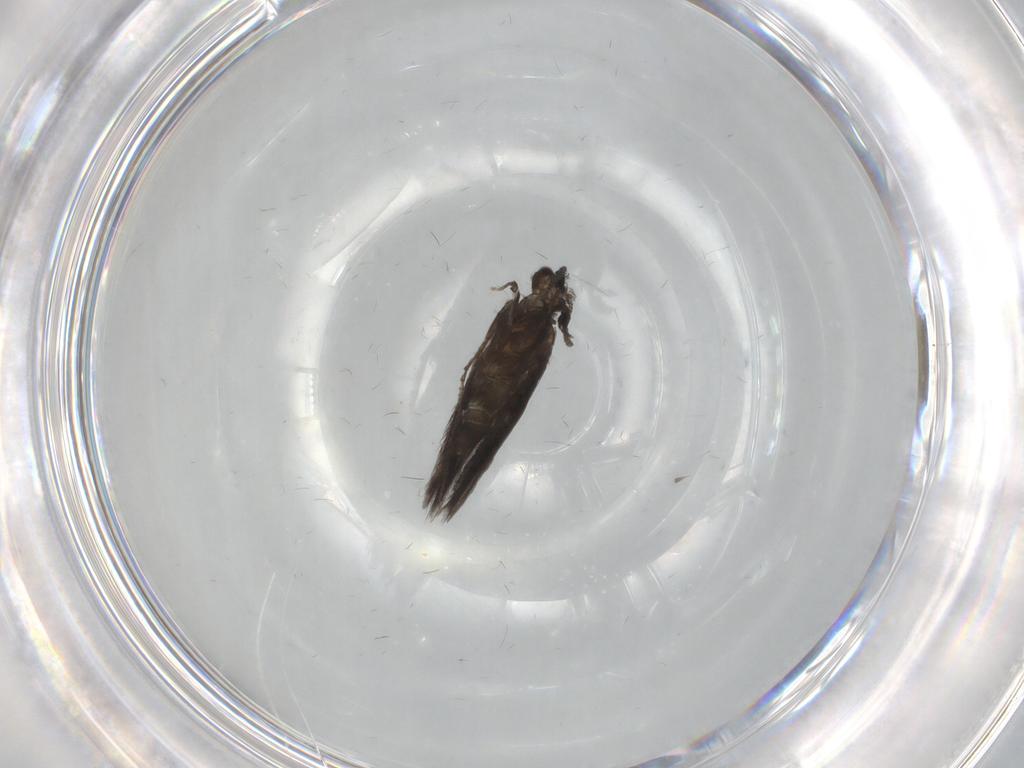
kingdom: Animalia
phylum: Arthropoda
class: Insecta
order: Trichoptera
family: Hydroptilidae
